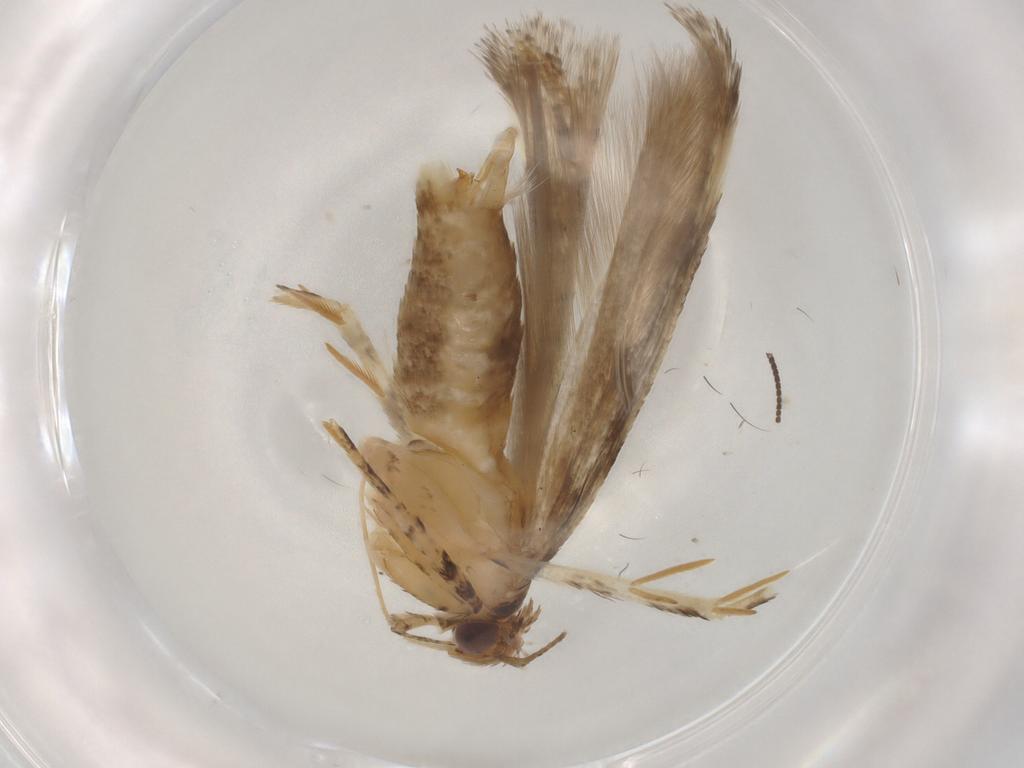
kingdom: Animalia
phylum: Arthropoda
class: Insecta
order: Lepidoptera
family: Gelechiidae
